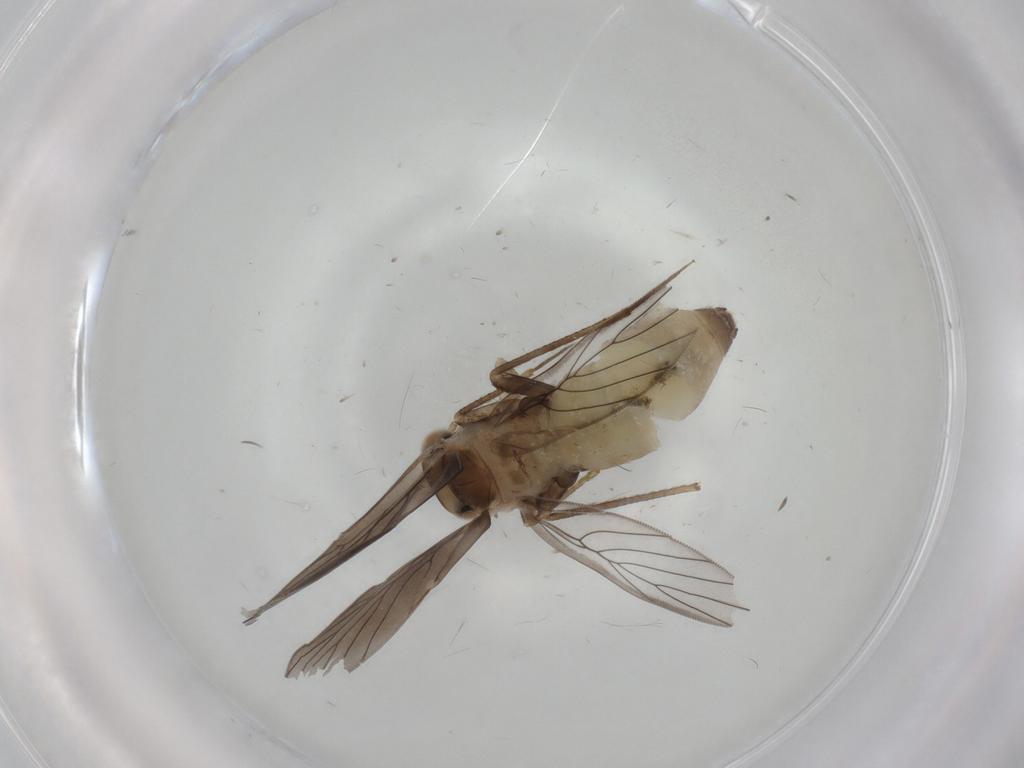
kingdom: Animalia
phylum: Arthropoda
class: Insecta
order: Psocodea
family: Lepidopsocidae
